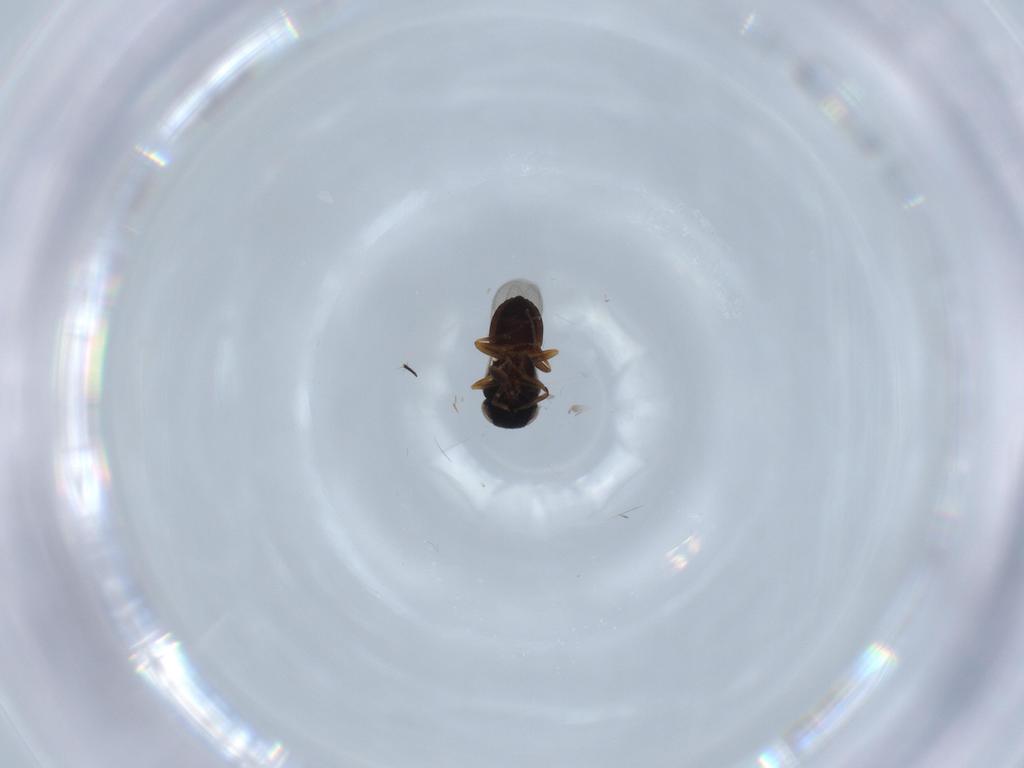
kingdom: Animalia
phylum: Arthropoda
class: Insecta
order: Coleoptera
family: Curculionidae
